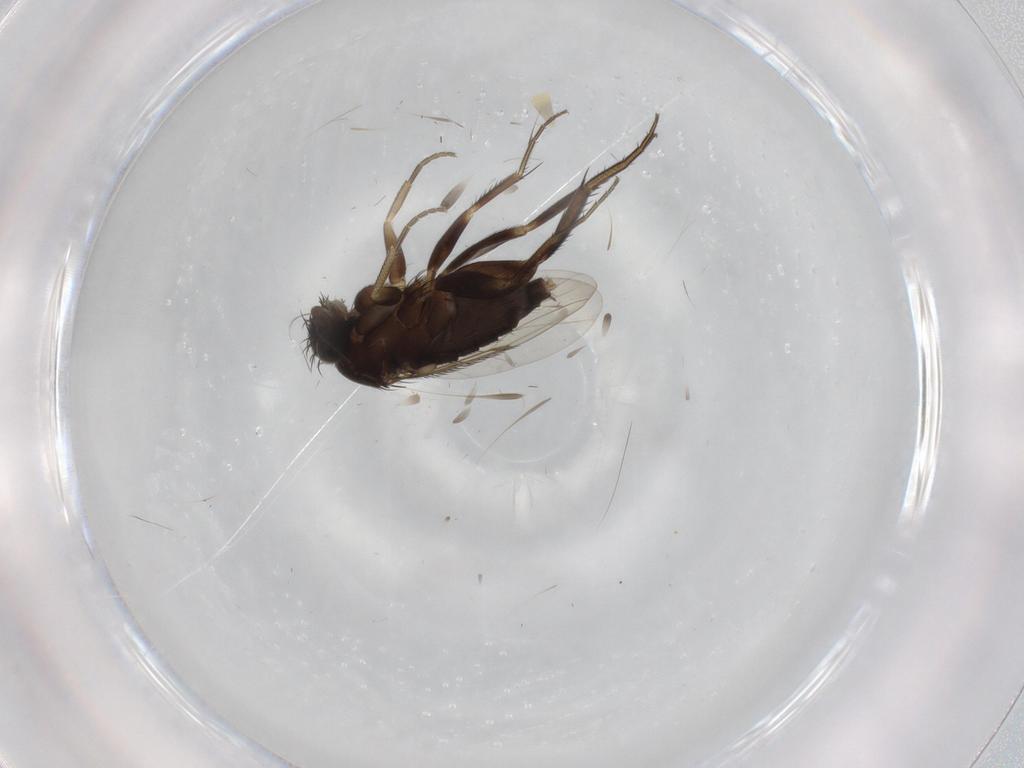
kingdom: Animalia
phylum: Arthropoda
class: Insecta
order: Diptera
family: Phoridae
